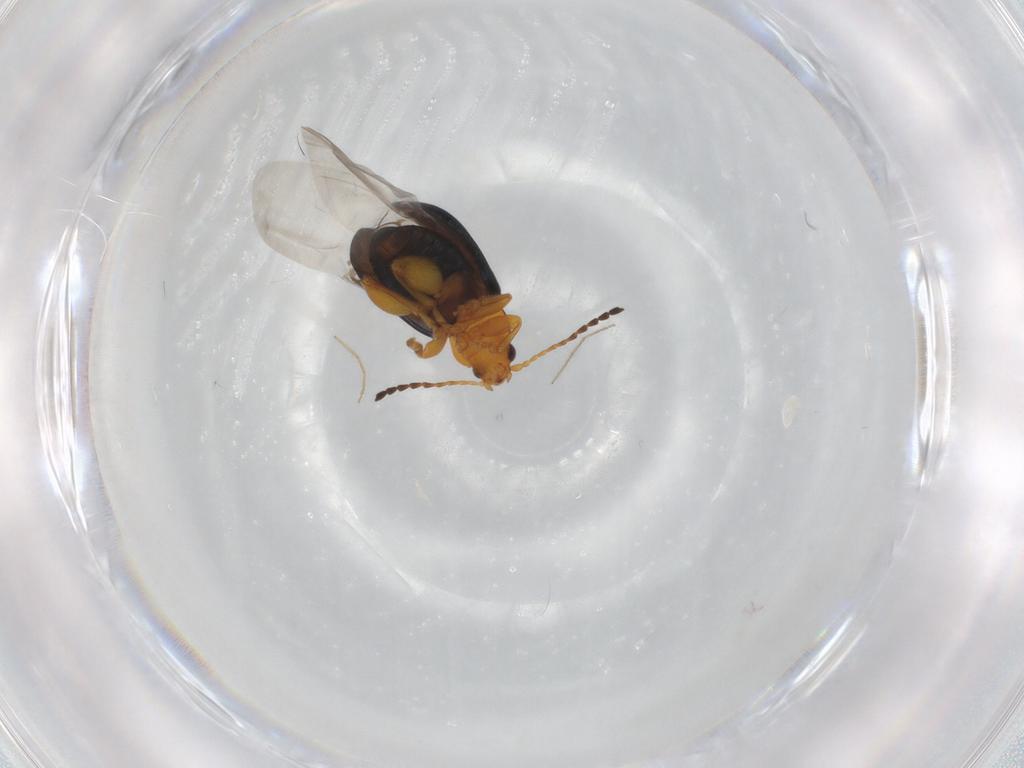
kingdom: Animalia
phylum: Arthropoda
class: Insecta
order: Coleoptera
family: Chrysomelidae
